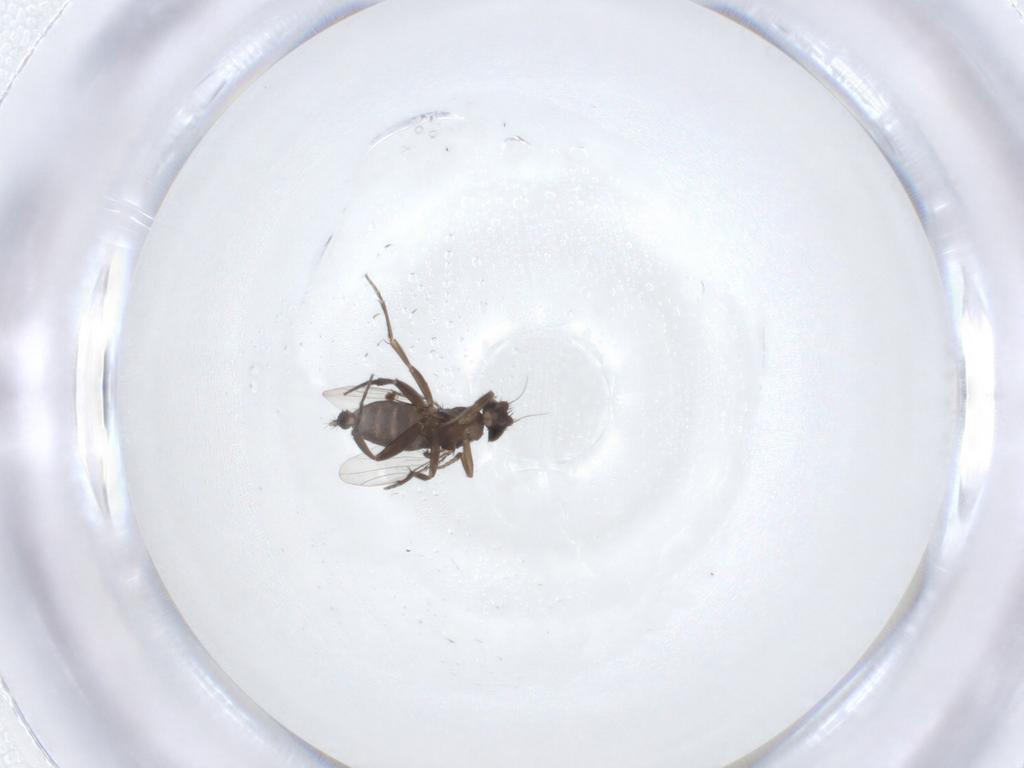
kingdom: Animalia
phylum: Arthropoda
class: Insecta
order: Diptera
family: Phoridae
